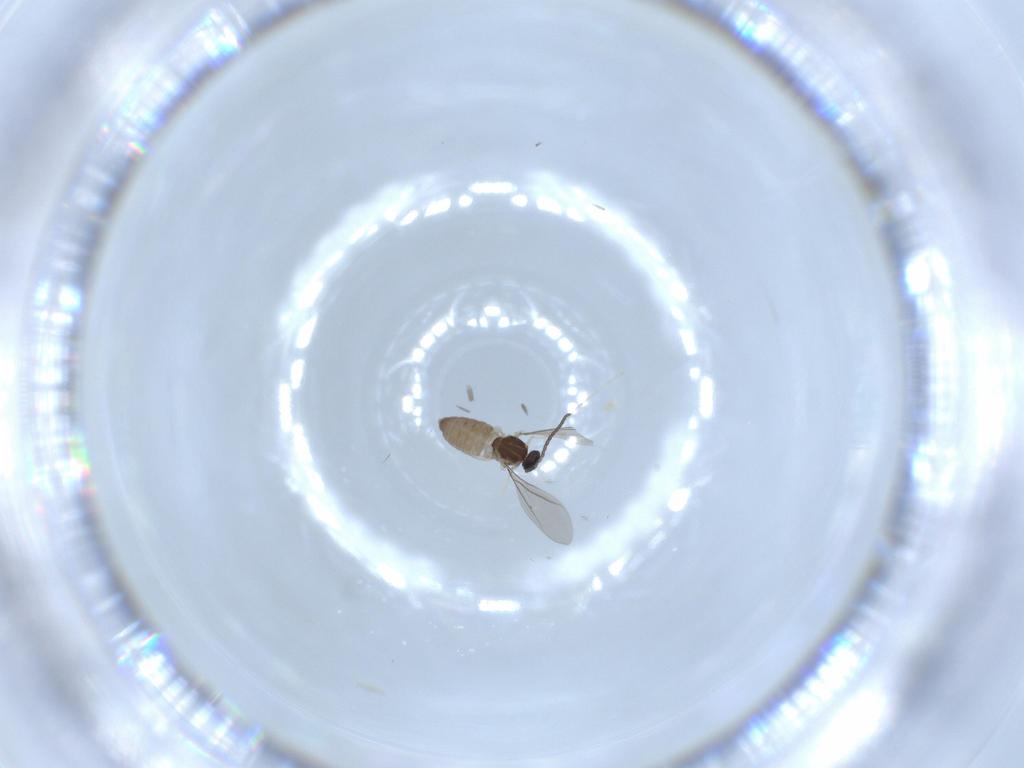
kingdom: Animalia
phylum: Arthropoda
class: Insecta
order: Diptera
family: Cecidomyiidae
